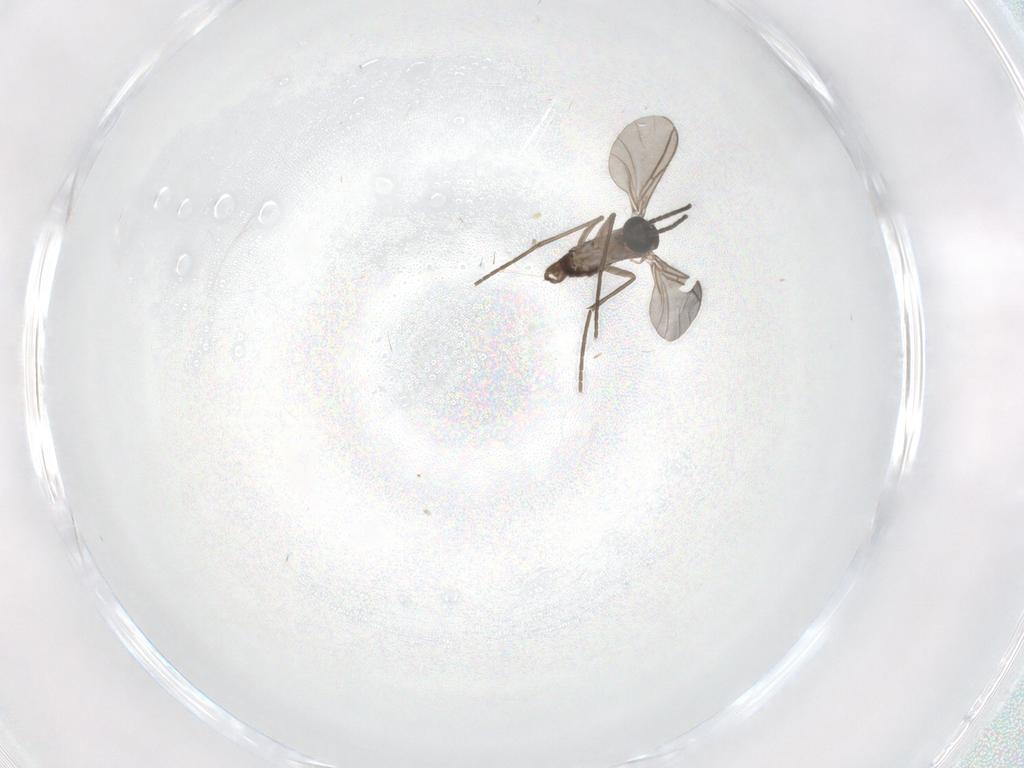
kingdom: Animalia
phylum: Arthropoda
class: Insecta
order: Diptera
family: Sciaridae
